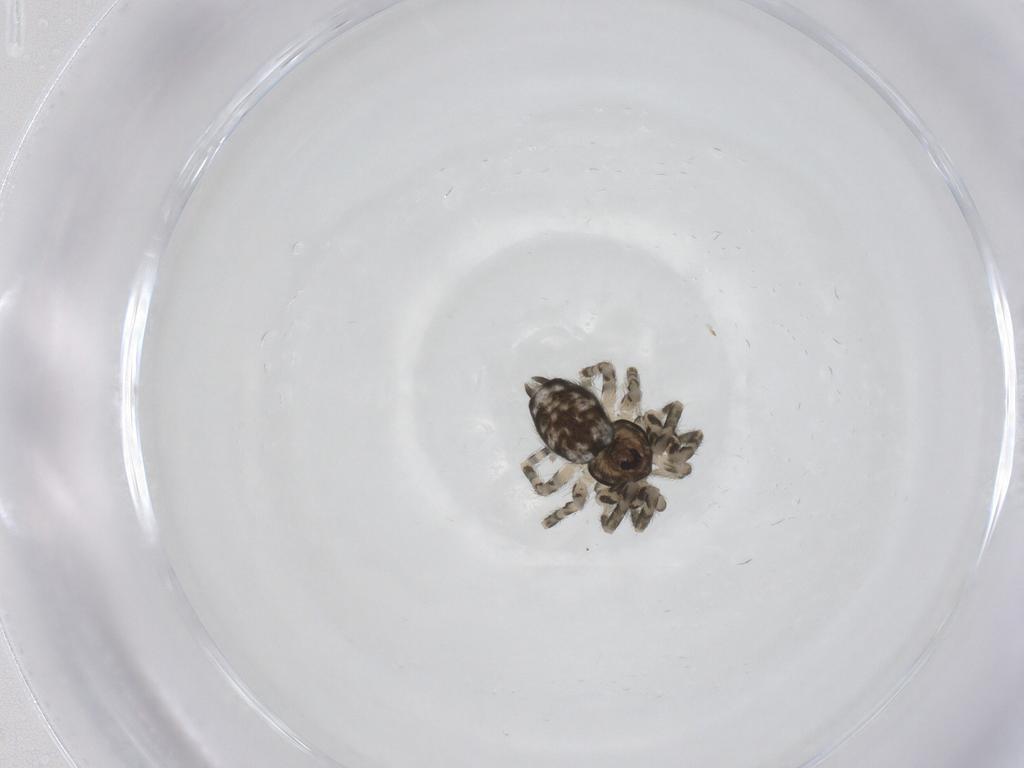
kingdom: Animalia
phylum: Arthropoda
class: Arachnida
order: Araneae
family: Oecobiidae
